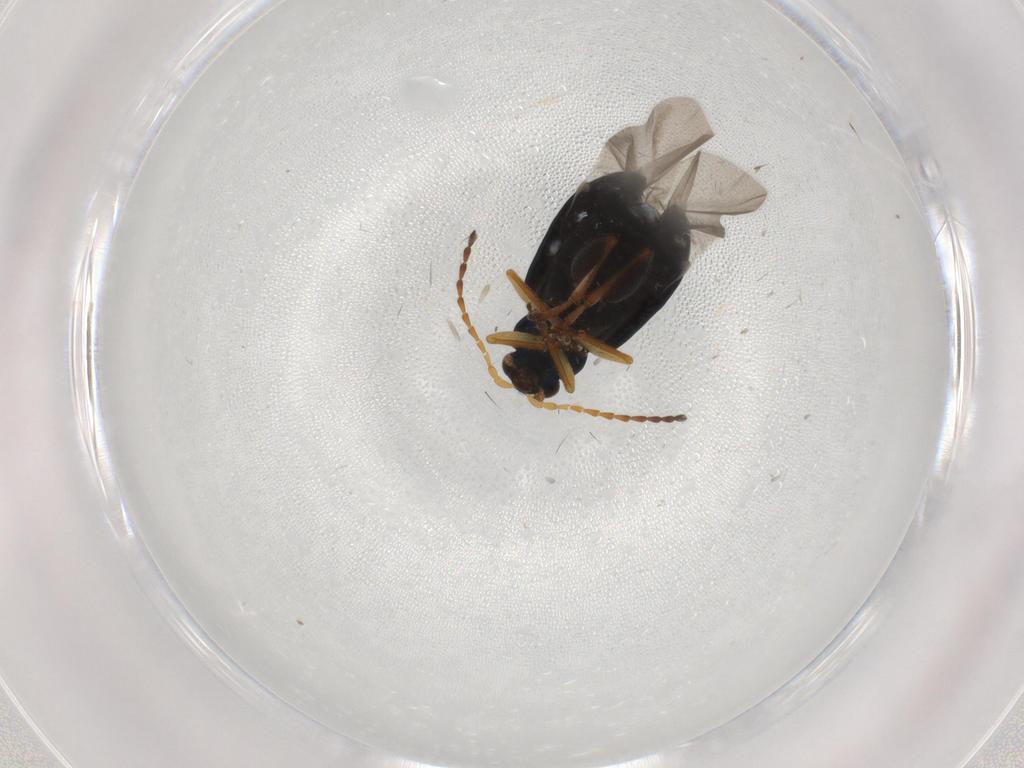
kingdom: Animalia
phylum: Arthropoda
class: Insecta
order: Coleoptera
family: Chrysomelidae
